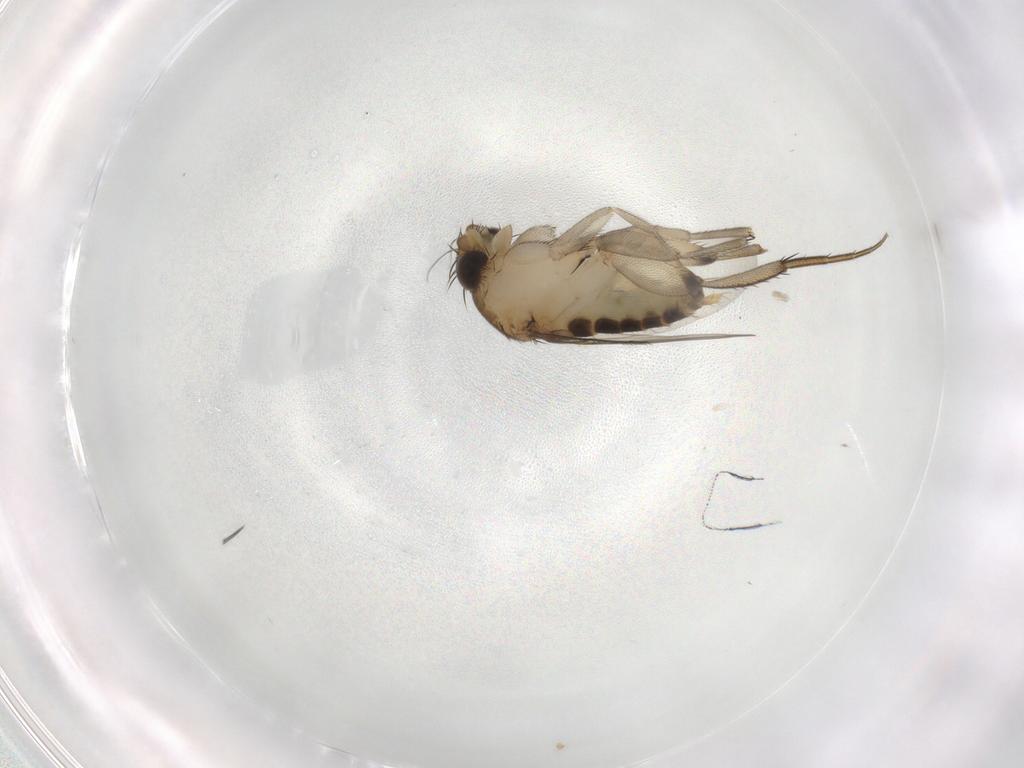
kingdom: Animalia
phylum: Arthropoda
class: Insecta
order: Diptera
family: Phoridae
